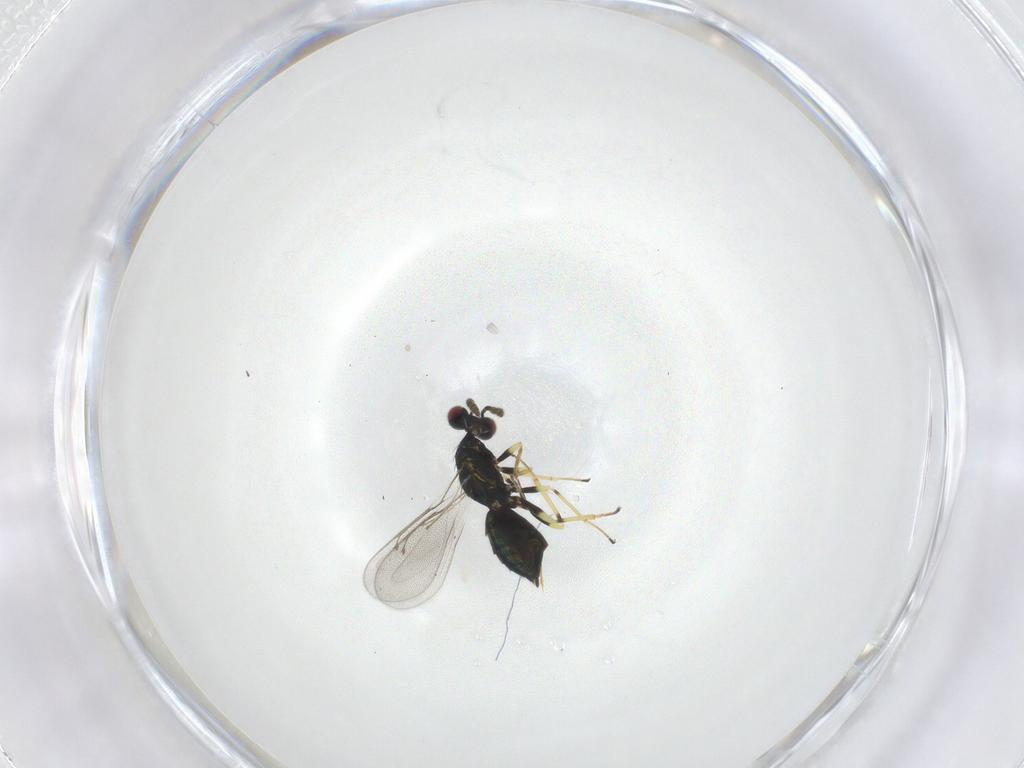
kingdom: Animalia
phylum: Arthropoda
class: Insecta
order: Hymenoptera
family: Eulophidae
